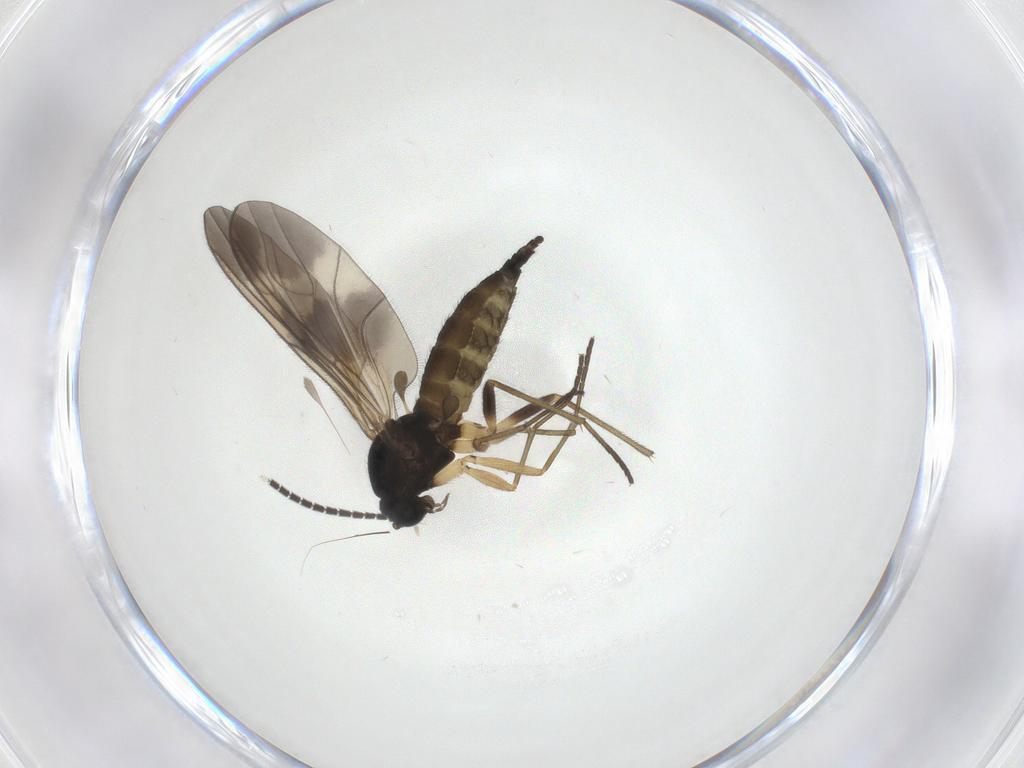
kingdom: Animalia
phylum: Arthropoda
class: Insecta
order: Diptera
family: Sciaridae
